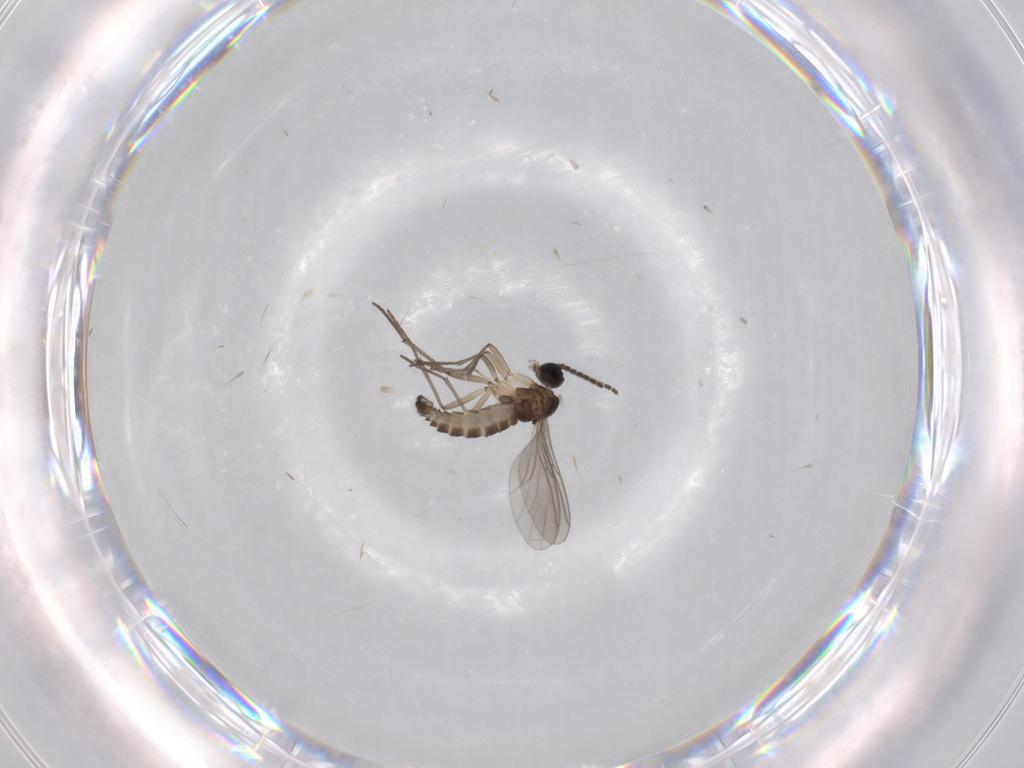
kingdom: Animalia
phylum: Arthropoda
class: Insecta
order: Diptera
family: Sciaridae
